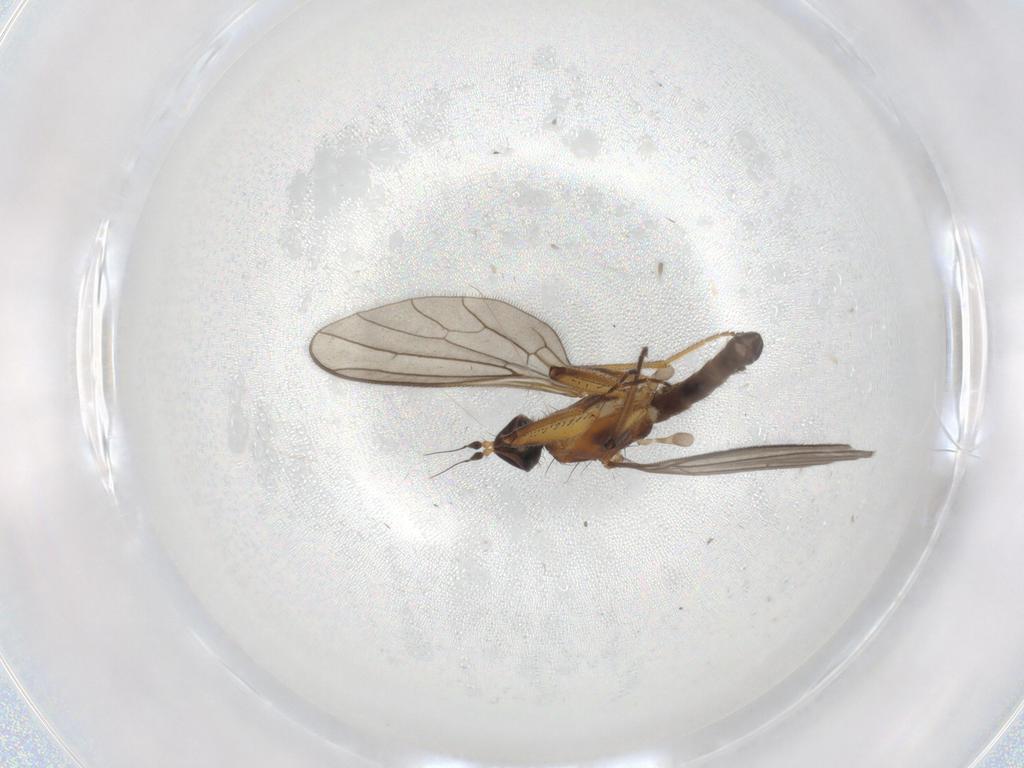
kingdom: Animalia
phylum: Arthropoda
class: Insecta
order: Diptera
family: Empididae
